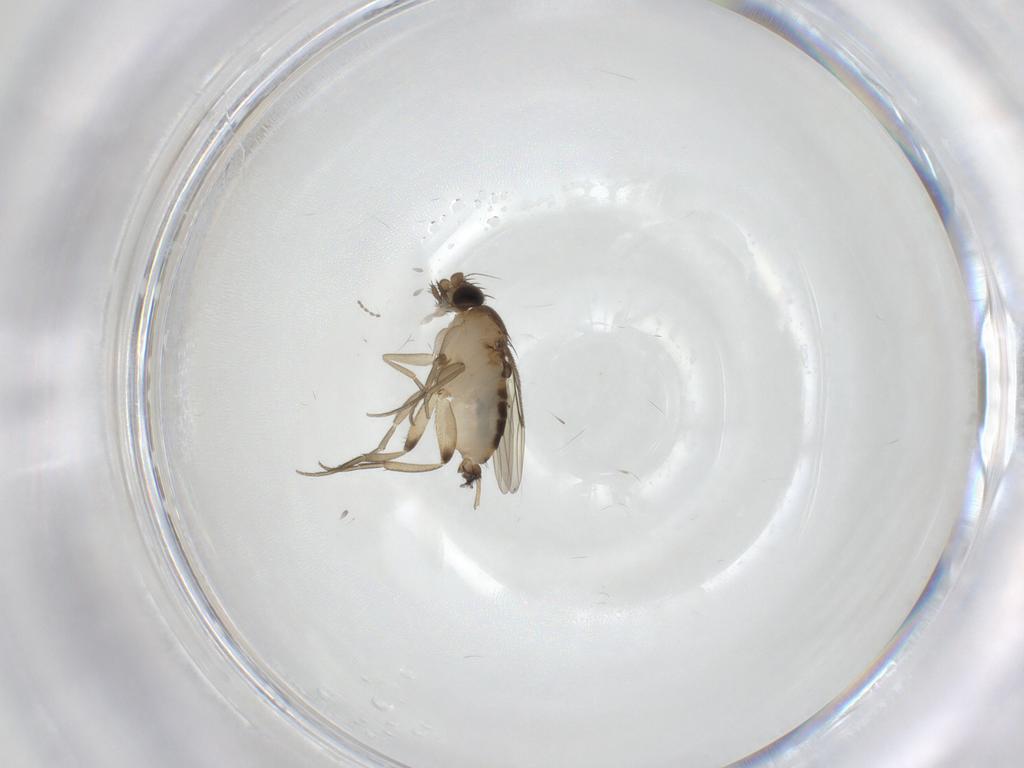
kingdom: Animalia
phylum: Arthropoda
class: Insecta
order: Diptera
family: Phoridae
